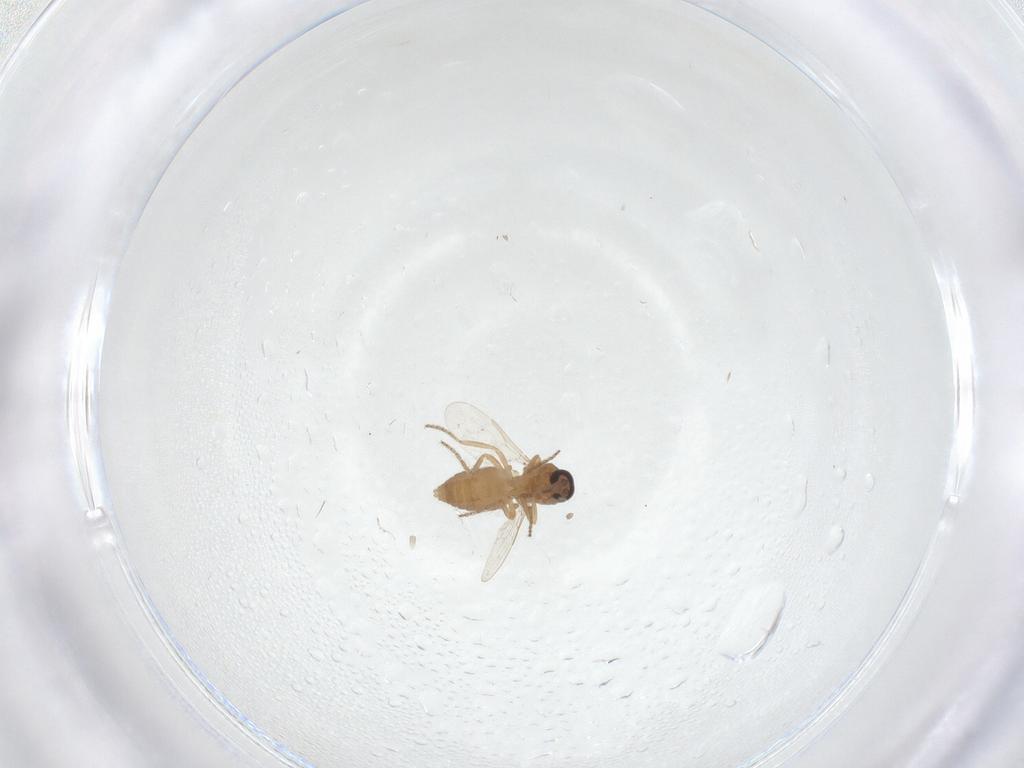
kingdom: Animalia
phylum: Arthropoda
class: Insecta
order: Diptera
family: Ceratopogonidae
